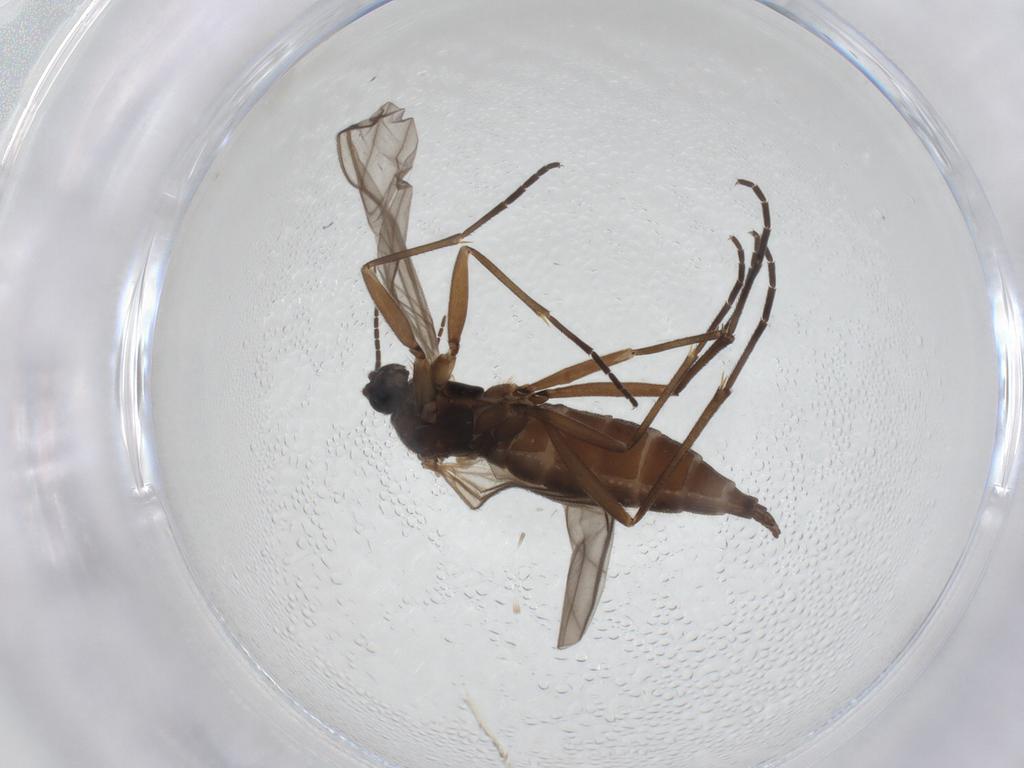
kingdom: Animalia
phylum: Arthropoda
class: Insecta
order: Diptera
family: Sciaridae
